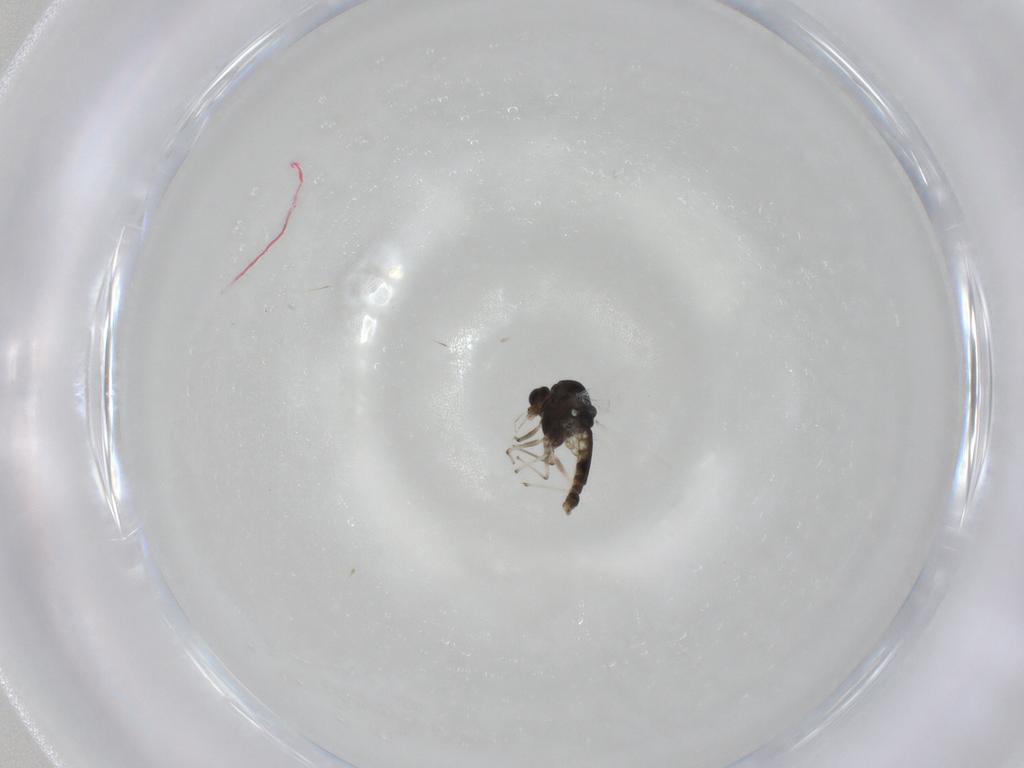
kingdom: Animalia
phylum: Arthropoda
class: Insecta
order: Diptera
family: Chironomidae
